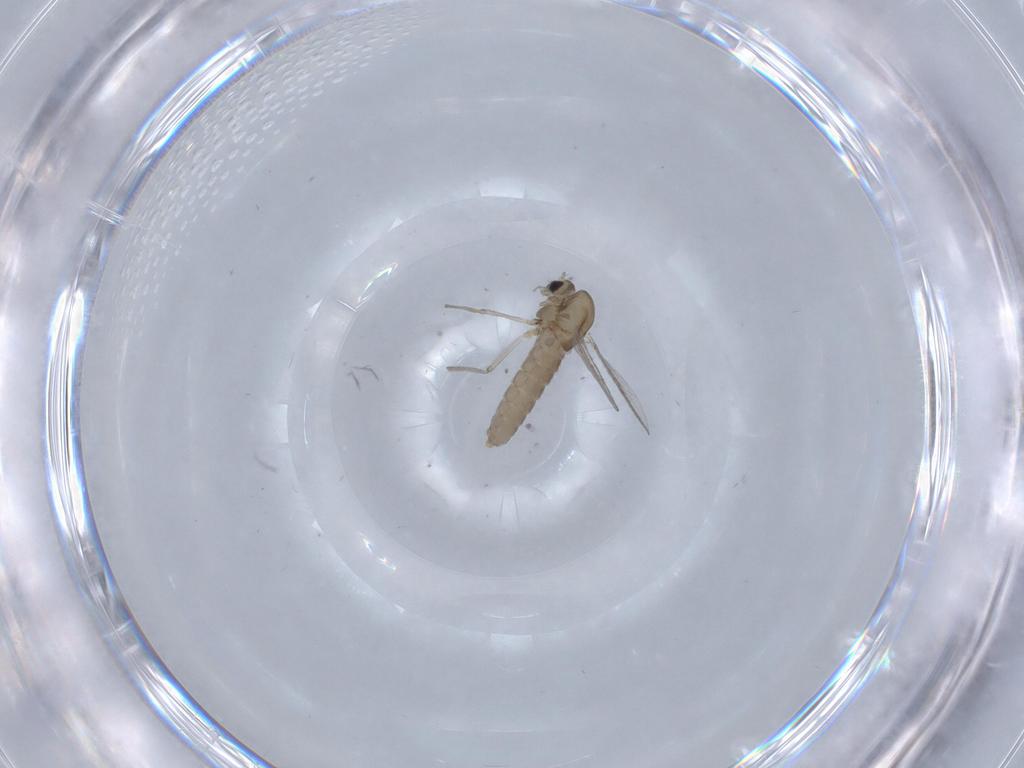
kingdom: Animalia
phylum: Arthropoda
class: Insecta
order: Diptera
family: Chironomidae
